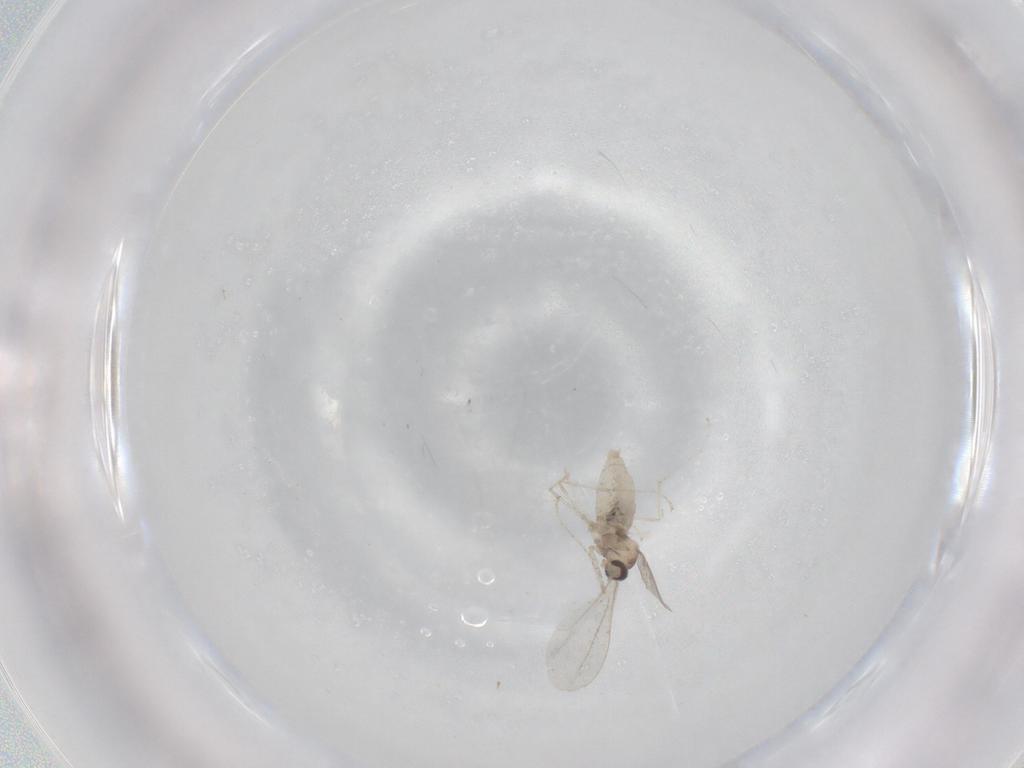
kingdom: Animalia
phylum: Arthropoda
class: Insecta
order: Diptera
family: Cecidomyiidae
